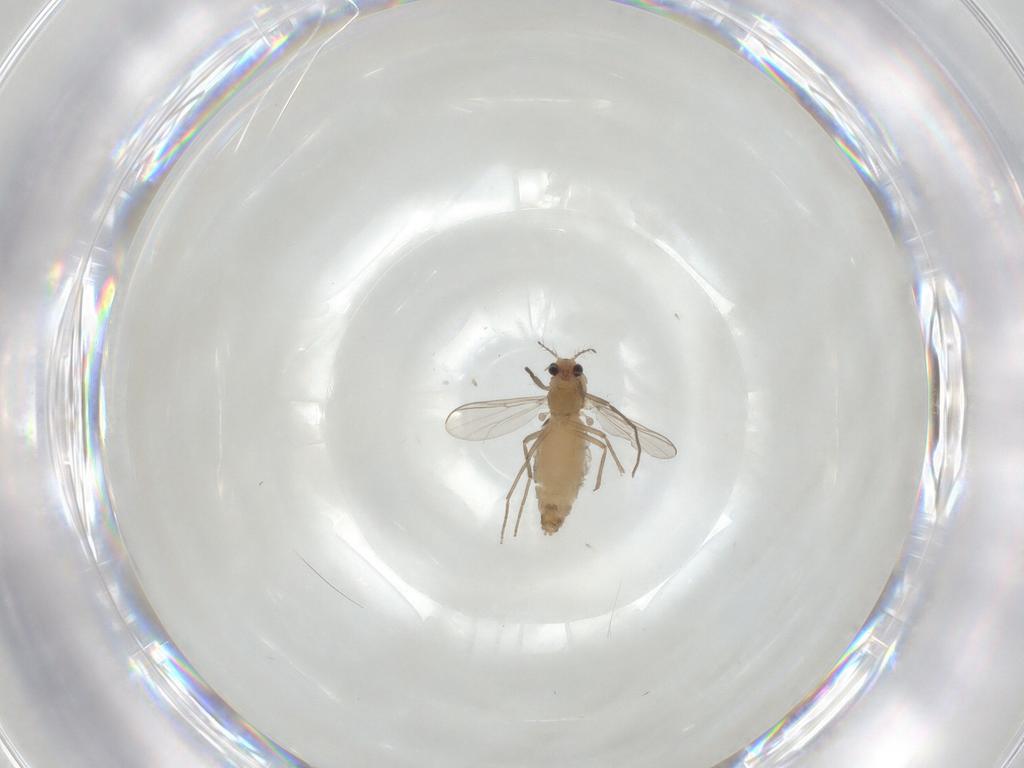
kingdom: Animalia
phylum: Arthropoda
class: Insecta
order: Diptera
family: Chironomidae
